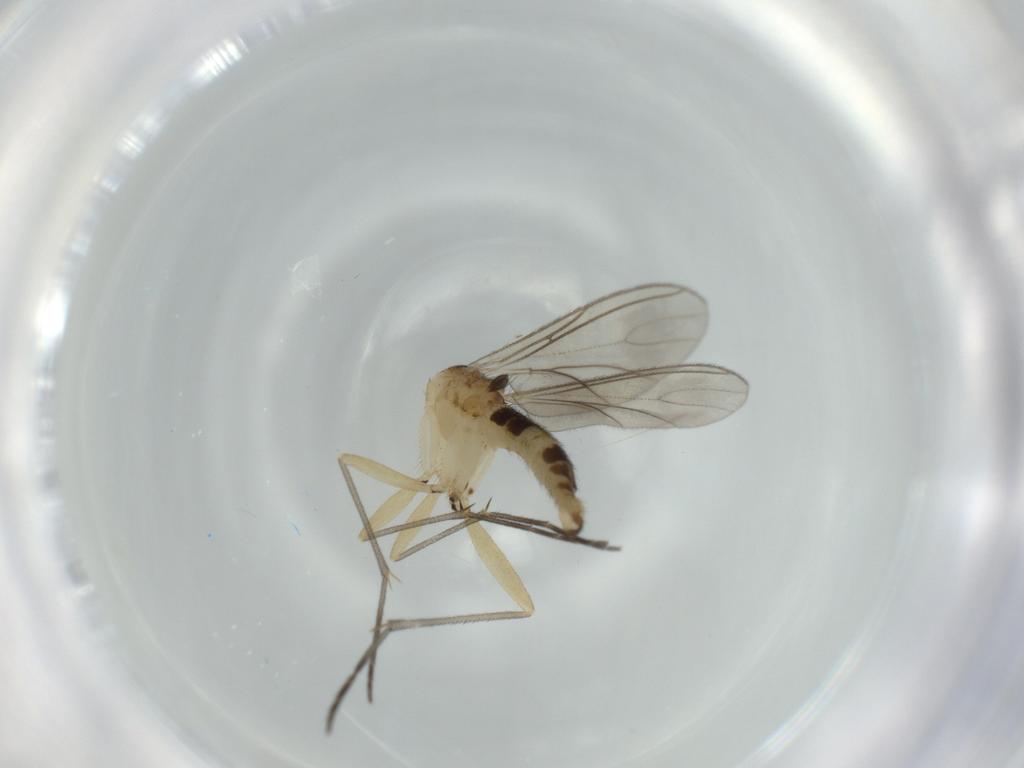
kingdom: Animalia
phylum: Arthropoda
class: Insecta
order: Diptera
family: Sciaridae
